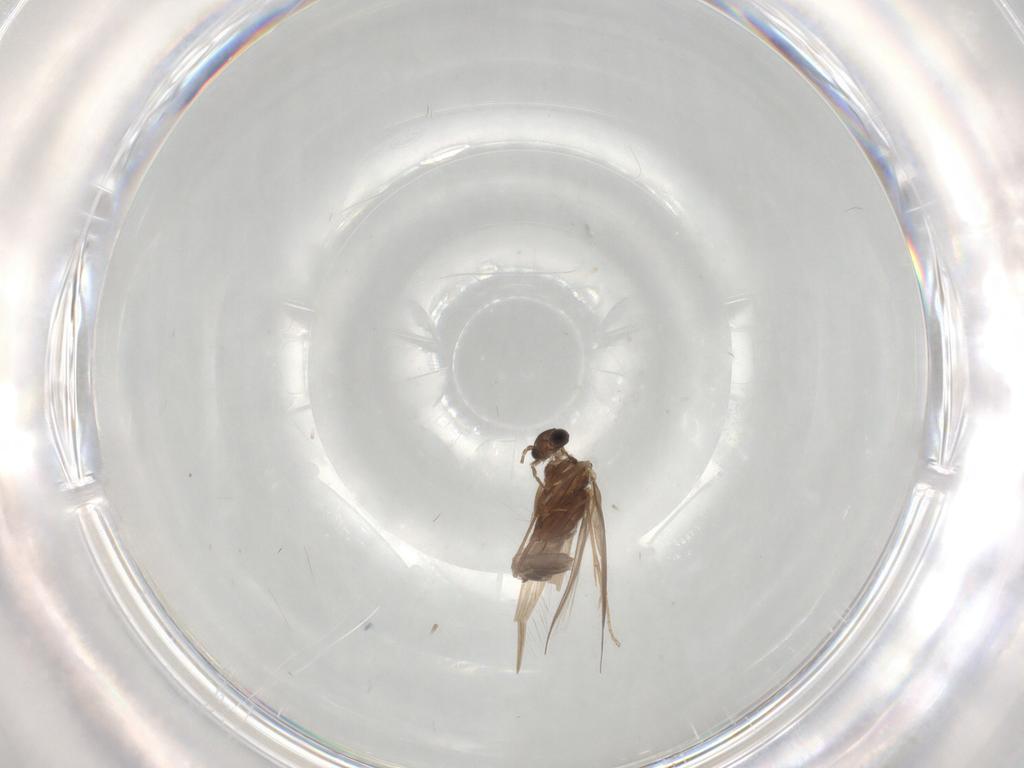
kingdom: Animalia
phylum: Arthropoda
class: Insecta
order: Trichoptera
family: Hydroptilidae
